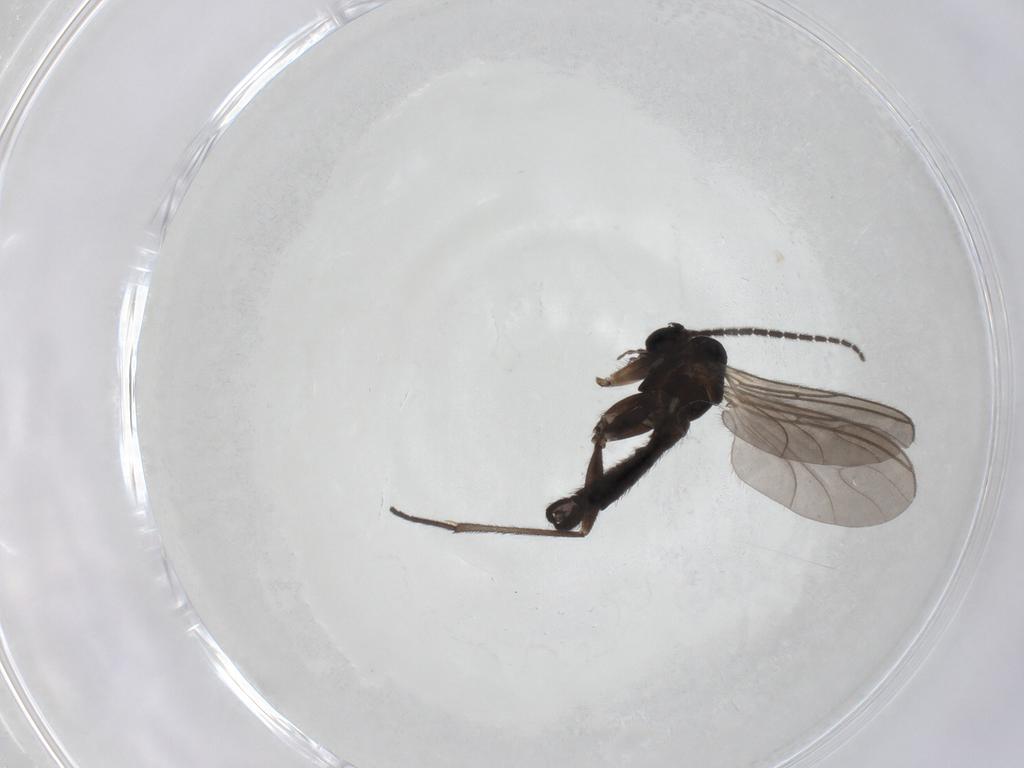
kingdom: Animalia
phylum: Arthropoda
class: Insecta
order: Diptera
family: Sciaridae
